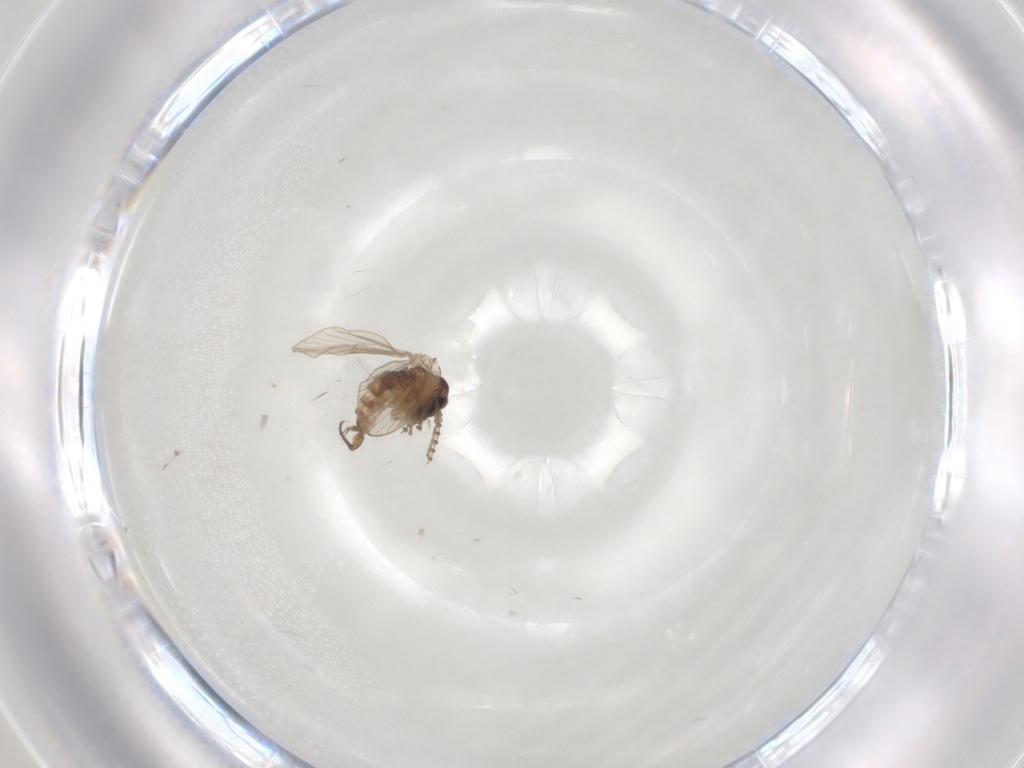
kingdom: Animalia
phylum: Arthropoda
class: Insecta
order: Diptera
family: Psychodidae
